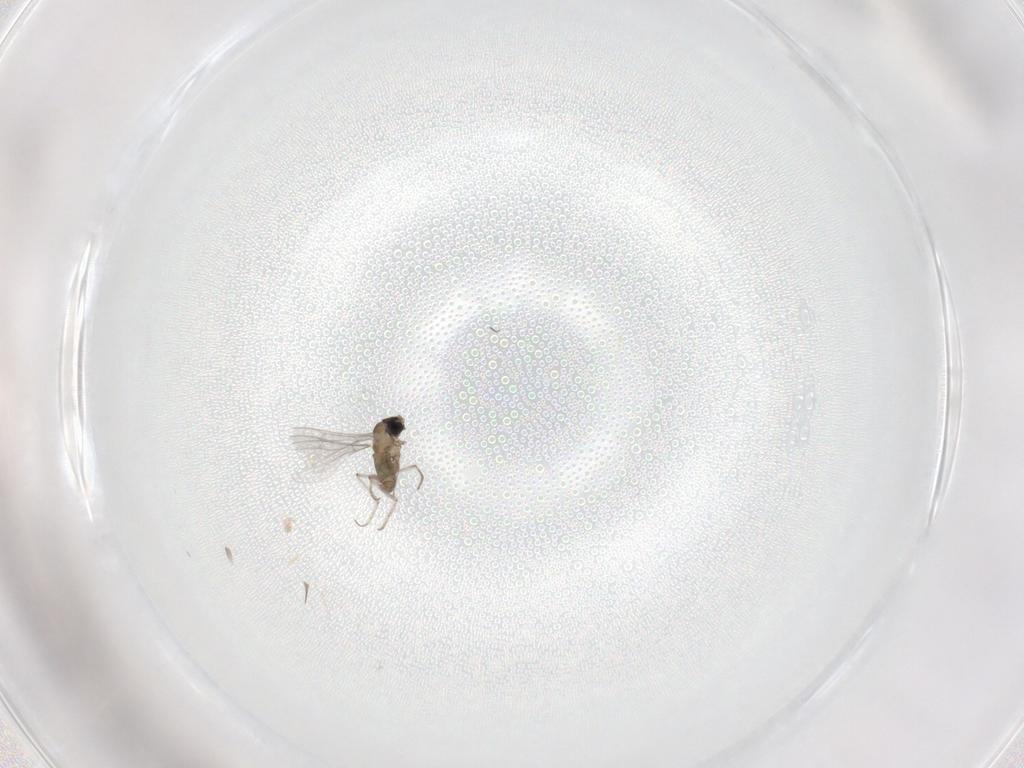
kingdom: Animalia
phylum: Arthropoda
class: Insecta
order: Diptera
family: Cecidomyiidae
